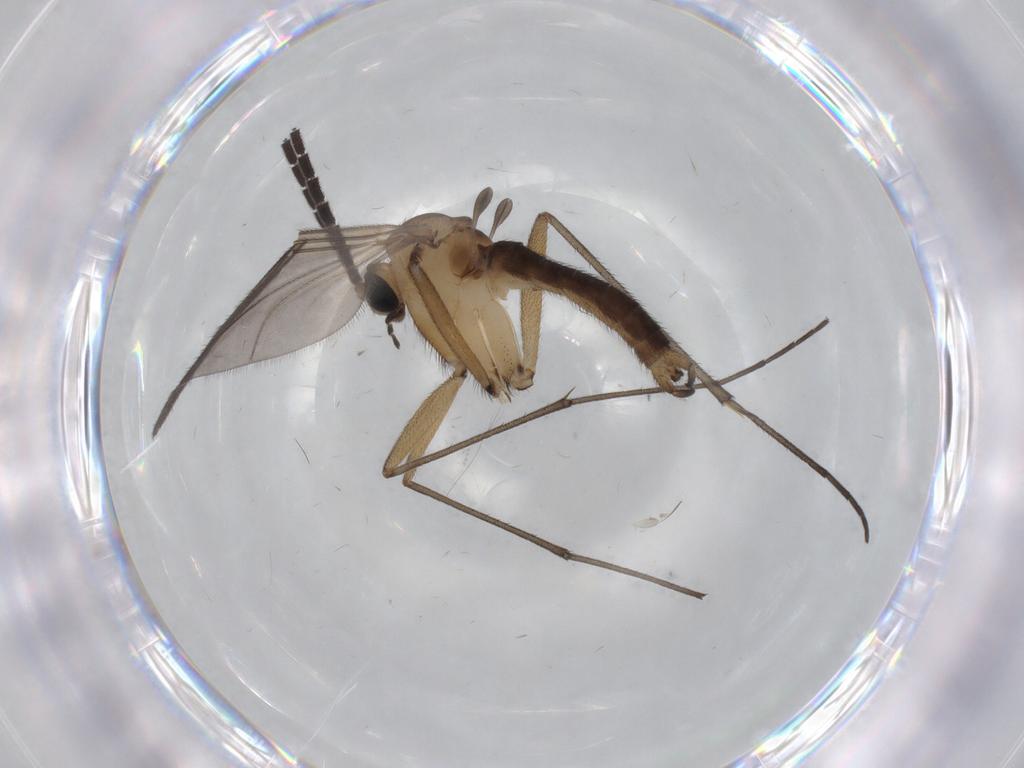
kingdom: Animalia
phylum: Arthropoda
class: Insecta
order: Diptera
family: Sciaridae
